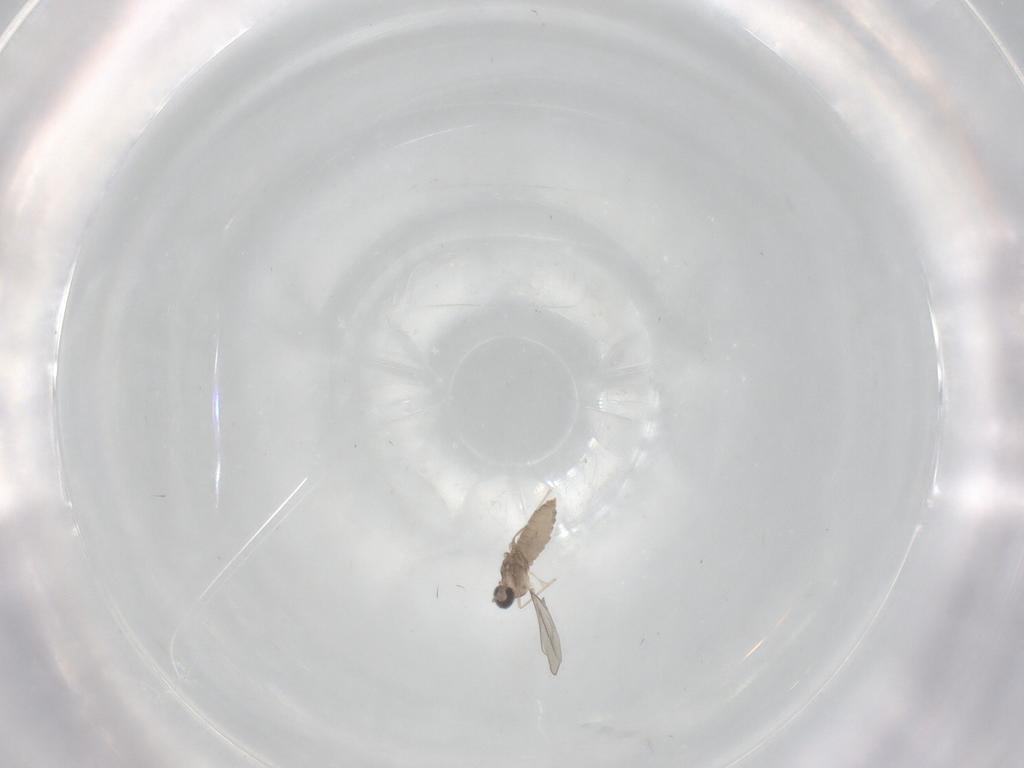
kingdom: Animalia
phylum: Arthropoda
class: Insecta
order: Diptera
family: Cecidomyiidae
